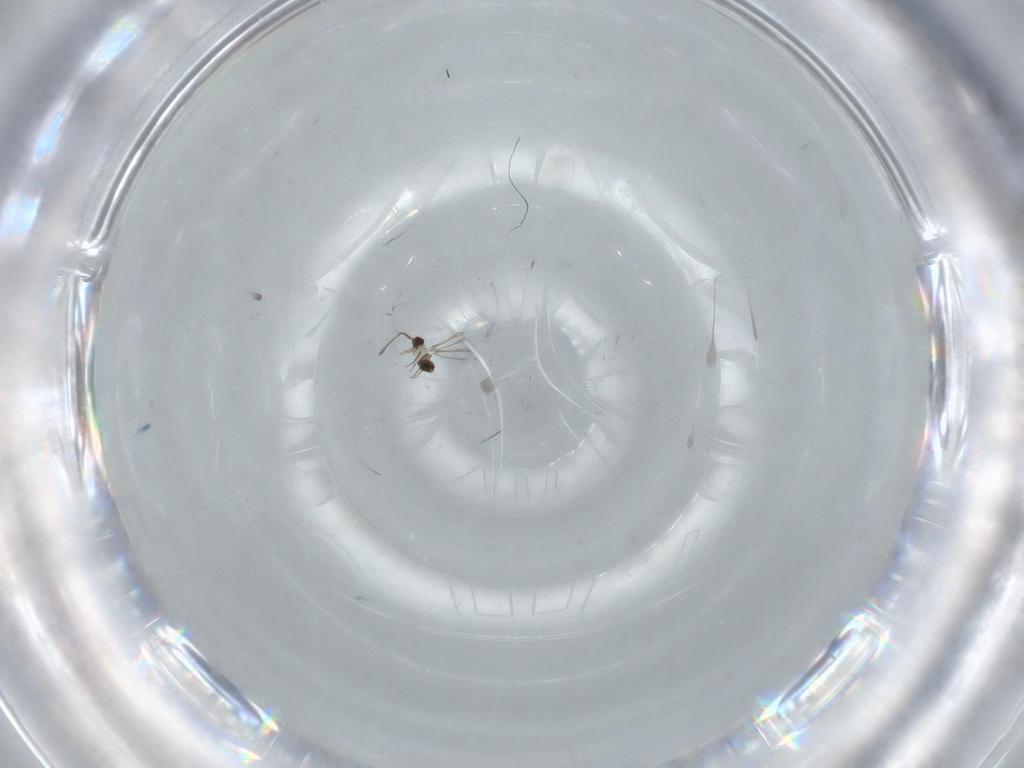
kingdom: Animalia
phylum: Arthropoda
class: Insecta
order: Hymenoptera
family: Mymaridae
